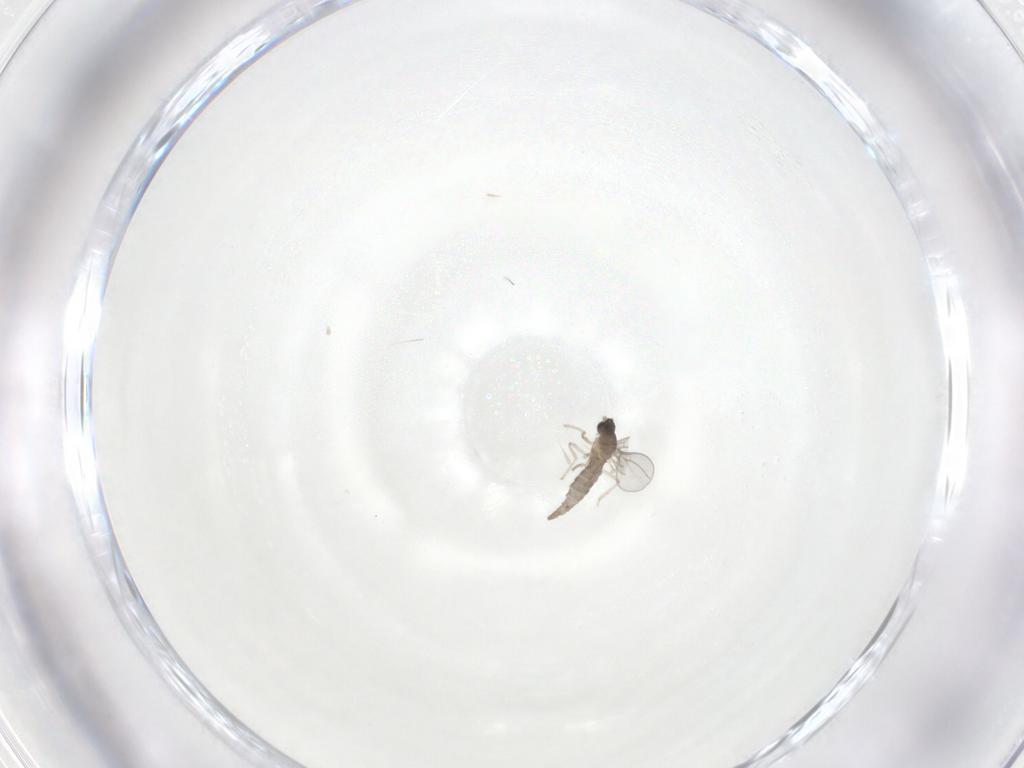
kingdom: Animalia
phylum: Arthropoda
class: Insecta
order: Diptera
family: Cecidomyiidae
